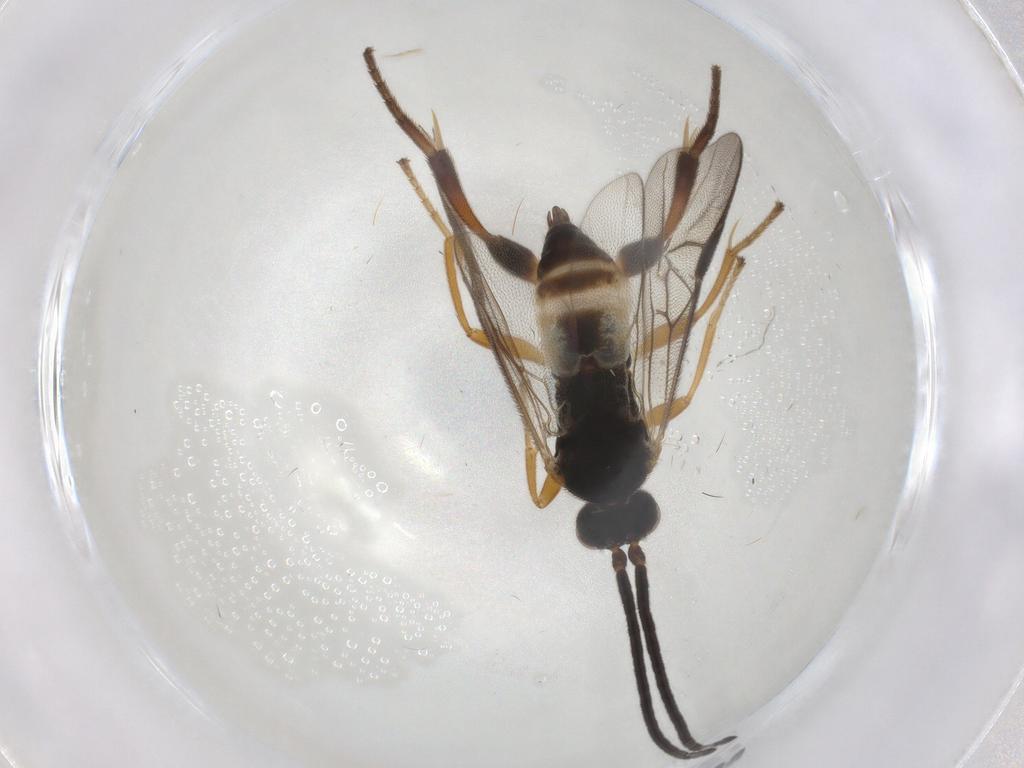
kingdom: Animalia
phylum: Arthropoda
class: Insecta
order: Hymenoptera
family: Braconidae
